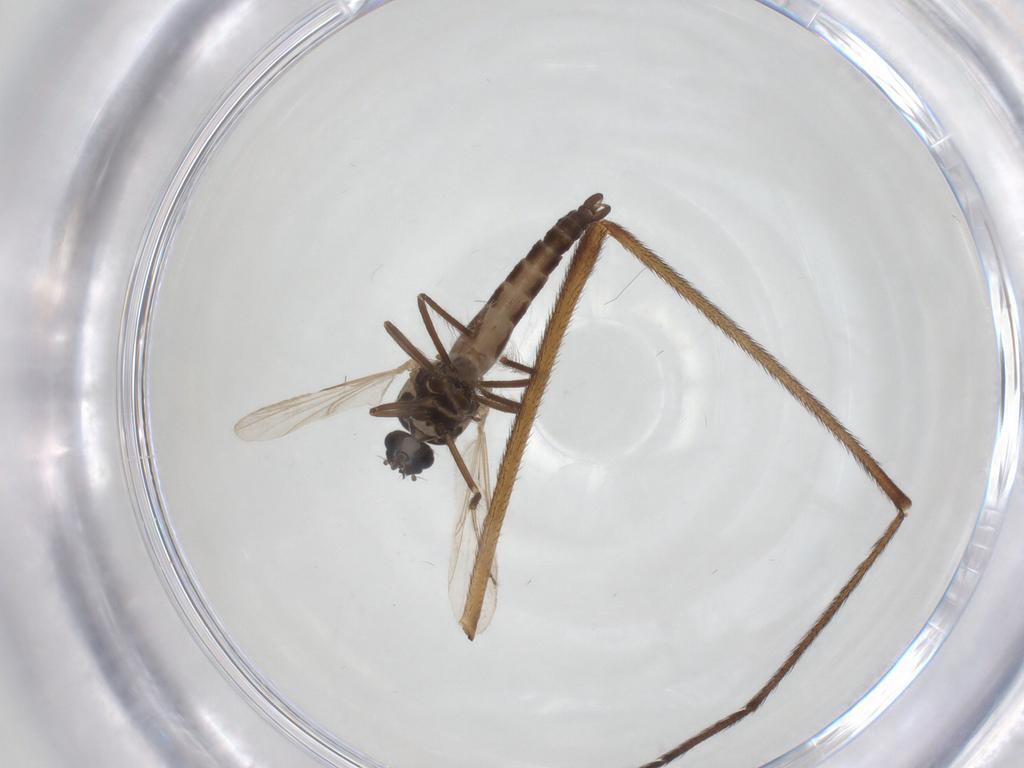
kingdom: Animalia
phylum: Arthropoda
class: Insecta
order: Diptera
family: Ceratopogonidae
